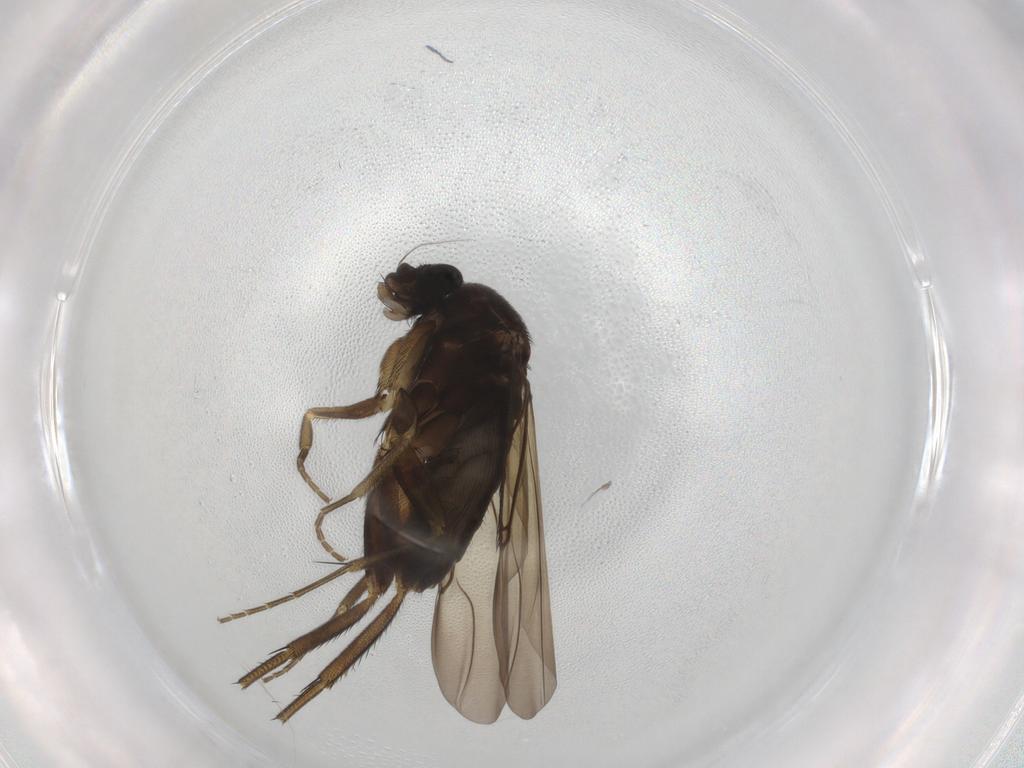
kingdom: Animalia
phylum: Arthropoda
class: Insecta
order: Diptera
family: Phoridae
